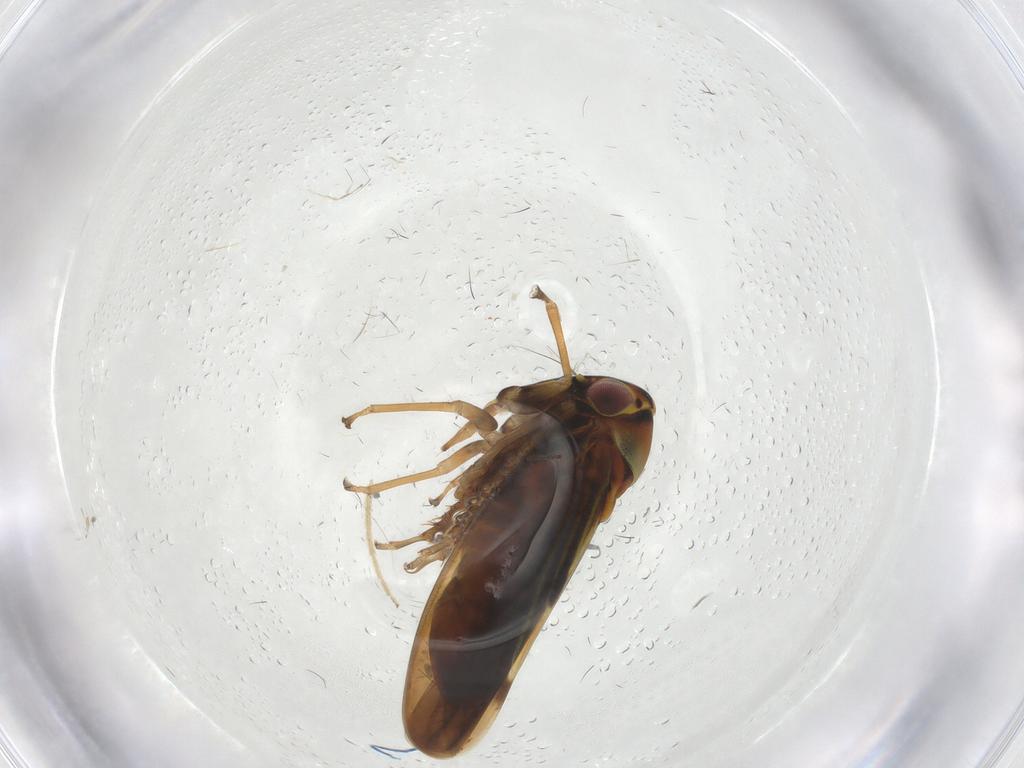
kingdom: Animalia
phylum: Arthropoda
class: Insecta
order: Hemiptera
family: Cicadellidae
